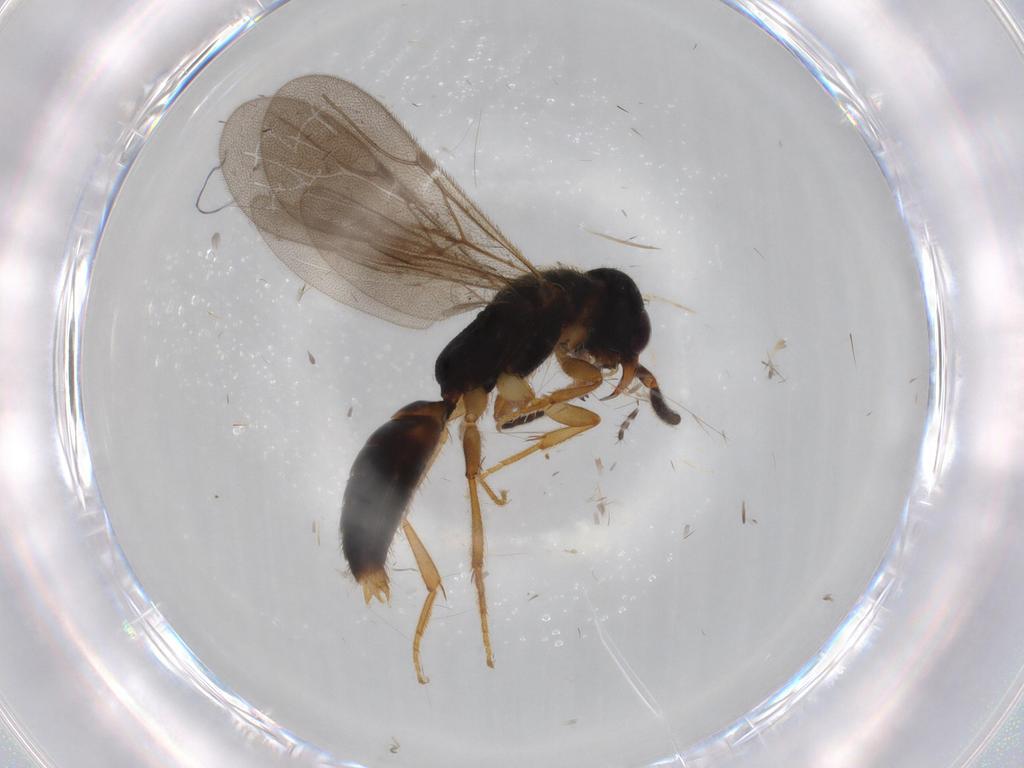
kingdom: Animalia
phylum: Arthropoda
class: Insecta
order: Hymenoptera
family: Bethylidae
